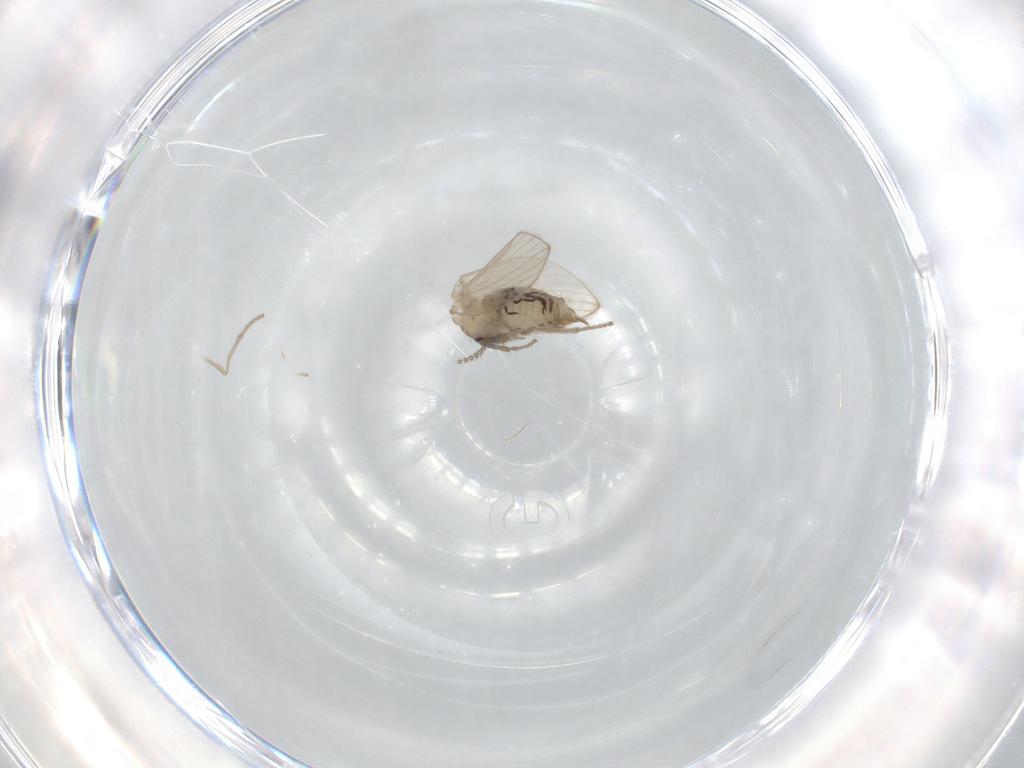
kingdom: Animalia
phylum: Arthropoda
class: Insecta
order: Diptera
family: Psychodidae
